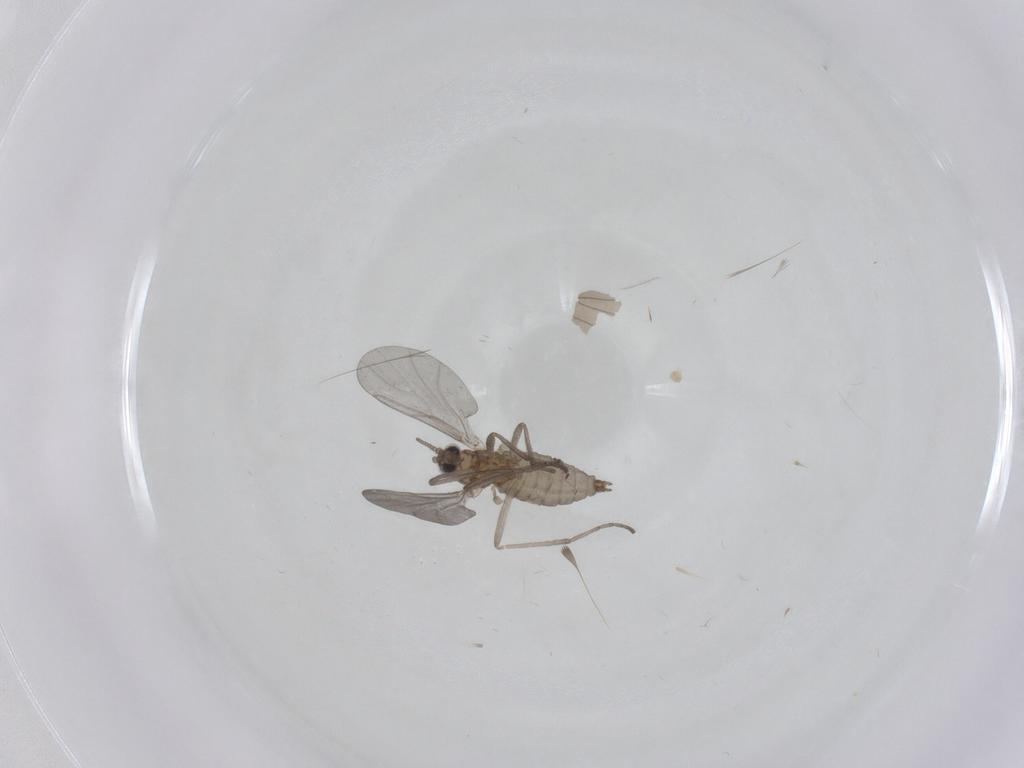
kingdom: Animalia
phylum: Arthropoda
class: Insecta
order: Diptera
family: Cecidomyiidae
